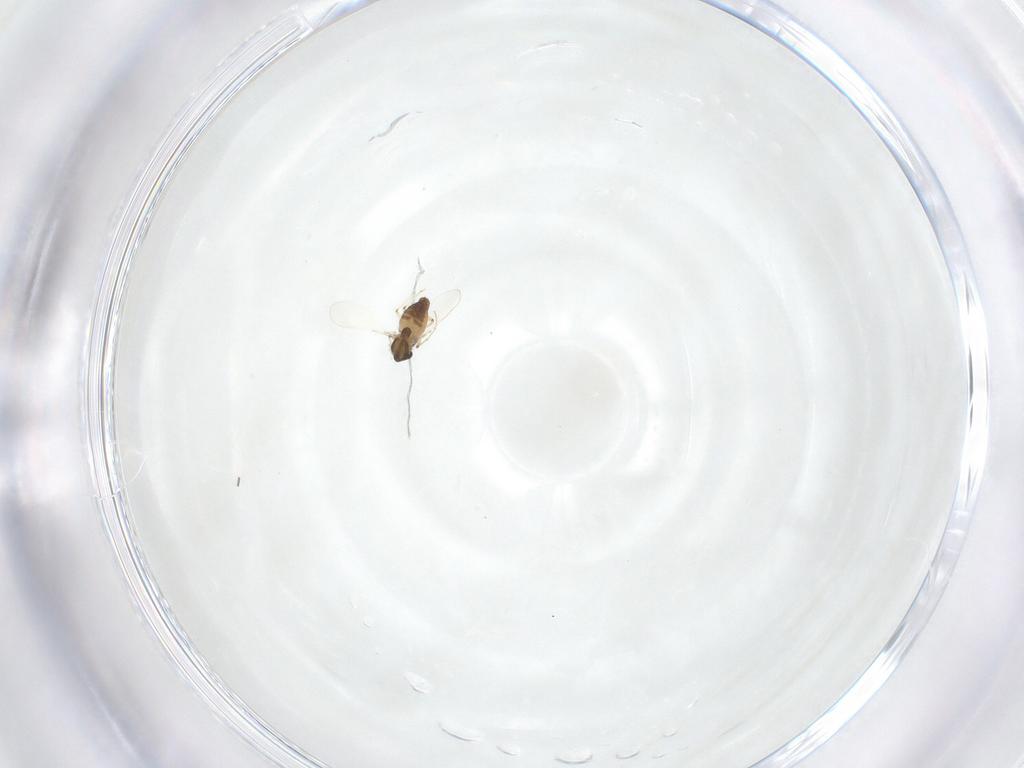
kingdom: Animalia
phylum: Arthropoda
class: Insecta
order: Diptera
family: Chironomidae
